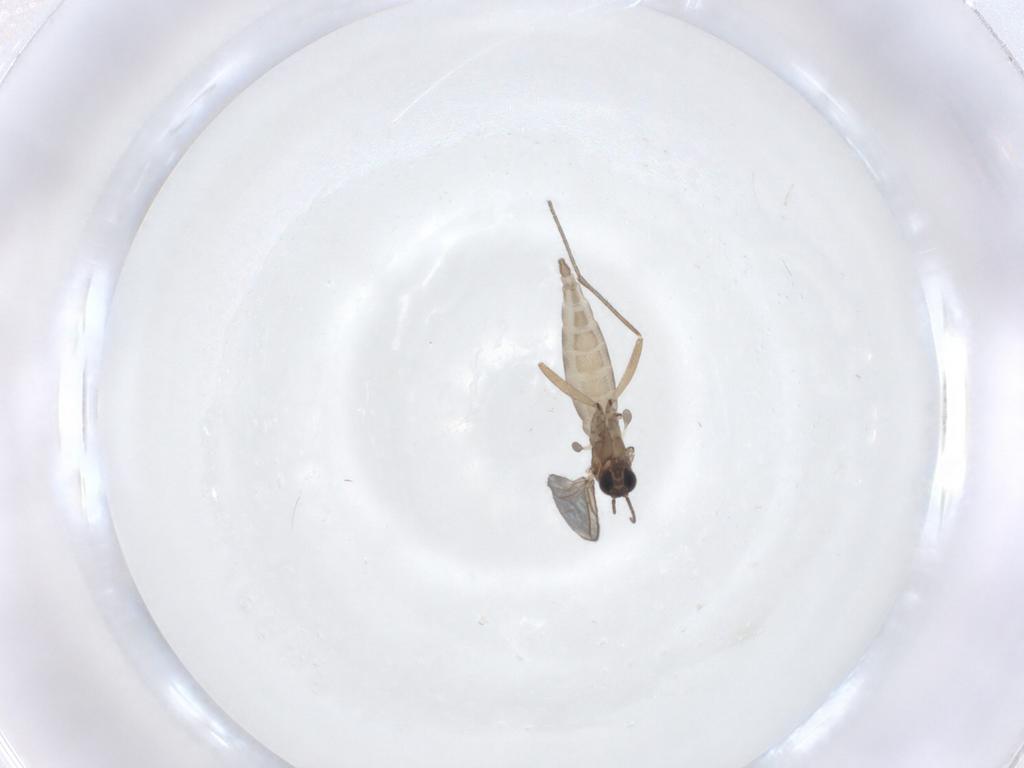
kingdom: Animalia
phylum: Arthropoda
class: Insecta
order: Diptera
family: Sciaridae
